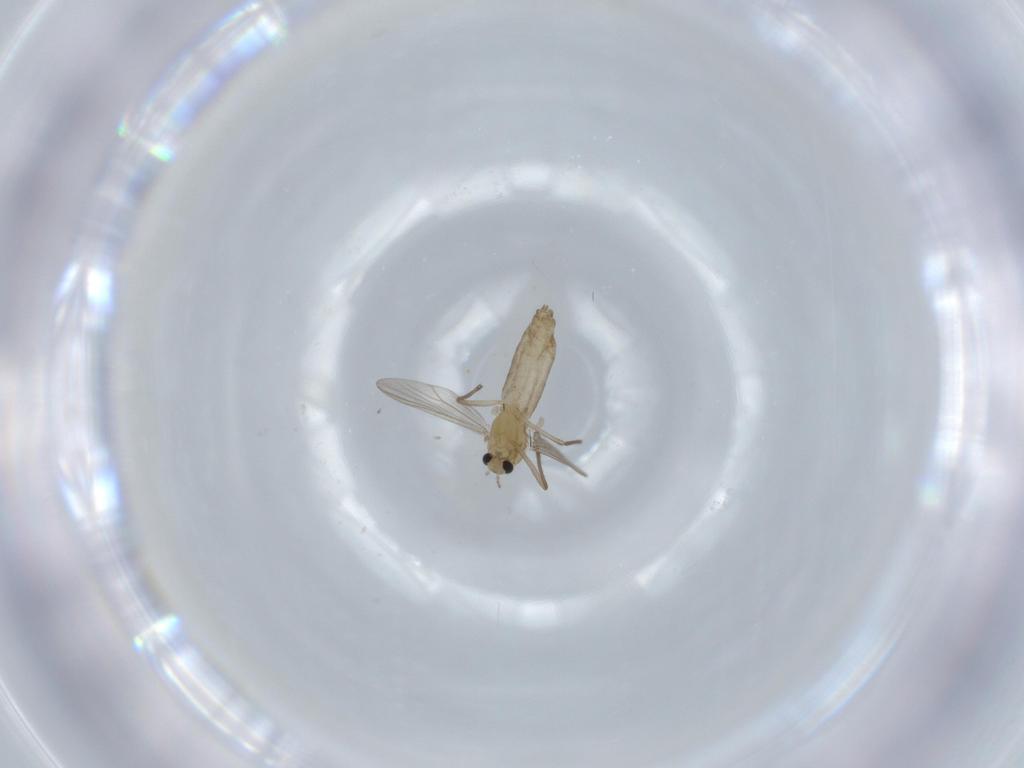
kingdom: Animalia
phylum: Arthropoda
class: Insecta
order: Diptera
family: Chironomidae
